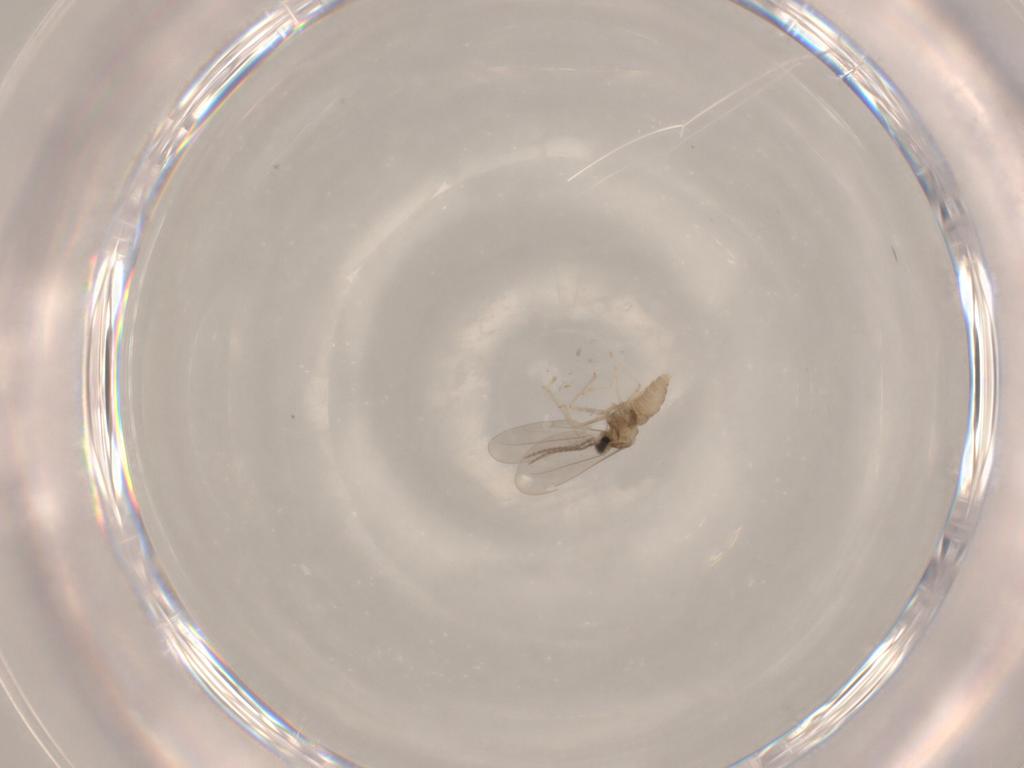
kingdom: Animalia
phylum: Arthropoda
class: Insecta
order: Diptera
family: Cecidomyiidae
